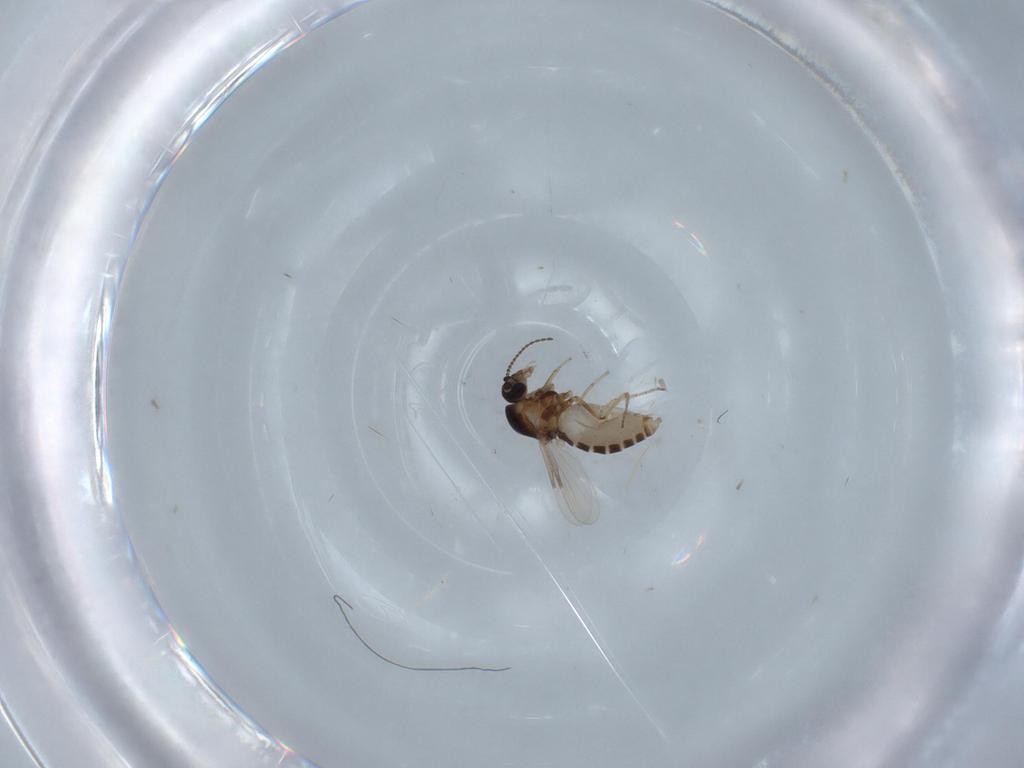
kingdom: Animalia
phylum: Arthropoda
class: Insecta
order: Diptera
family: Ceratopogonidae
